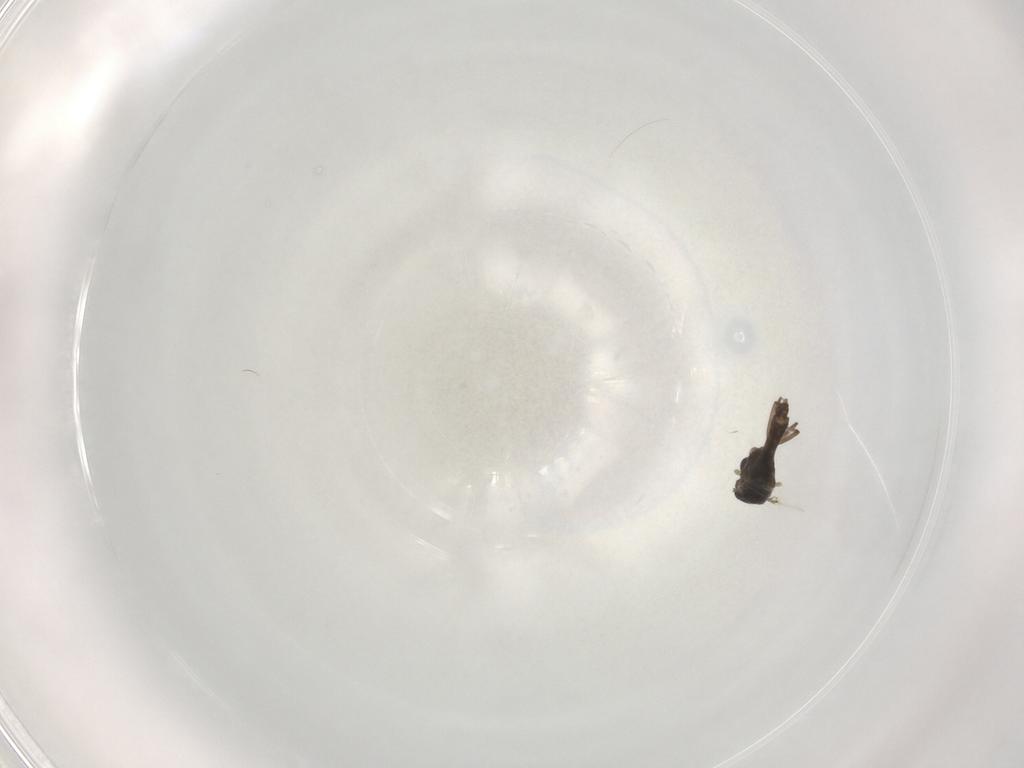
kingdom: Animalia
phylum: Arthropoda
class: Insecta
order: Diptera
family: Chironomidae
